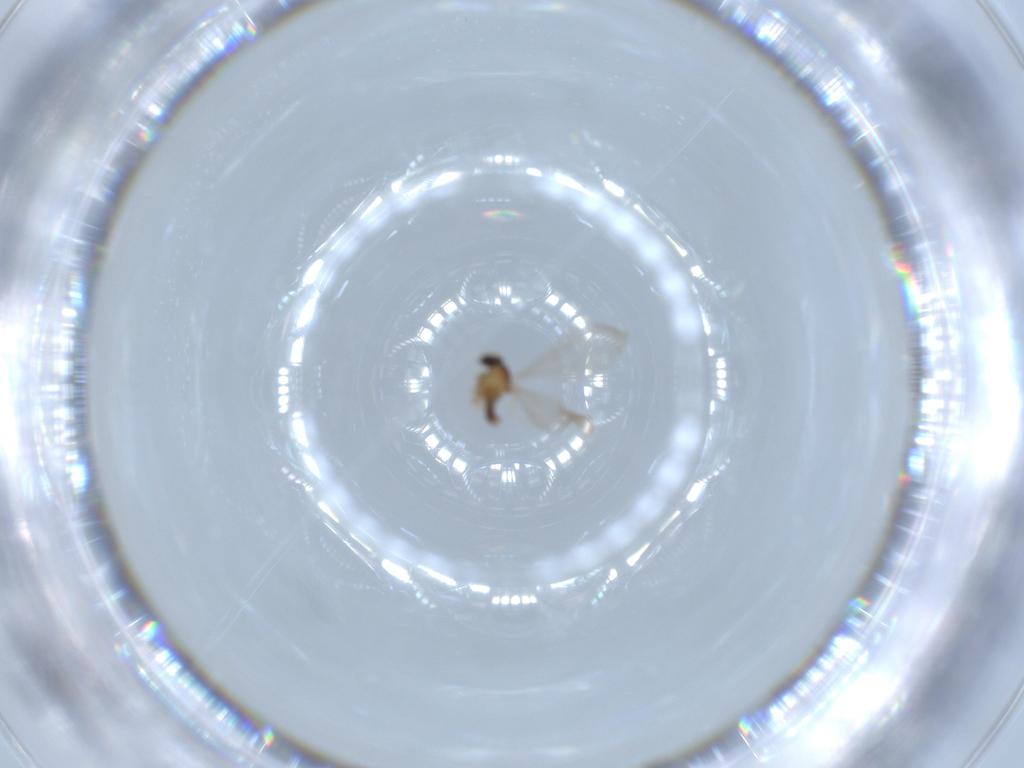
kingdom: Animalia
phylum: Arthropoda
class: Insecta
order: Diptera
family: Cecidomyiidae
